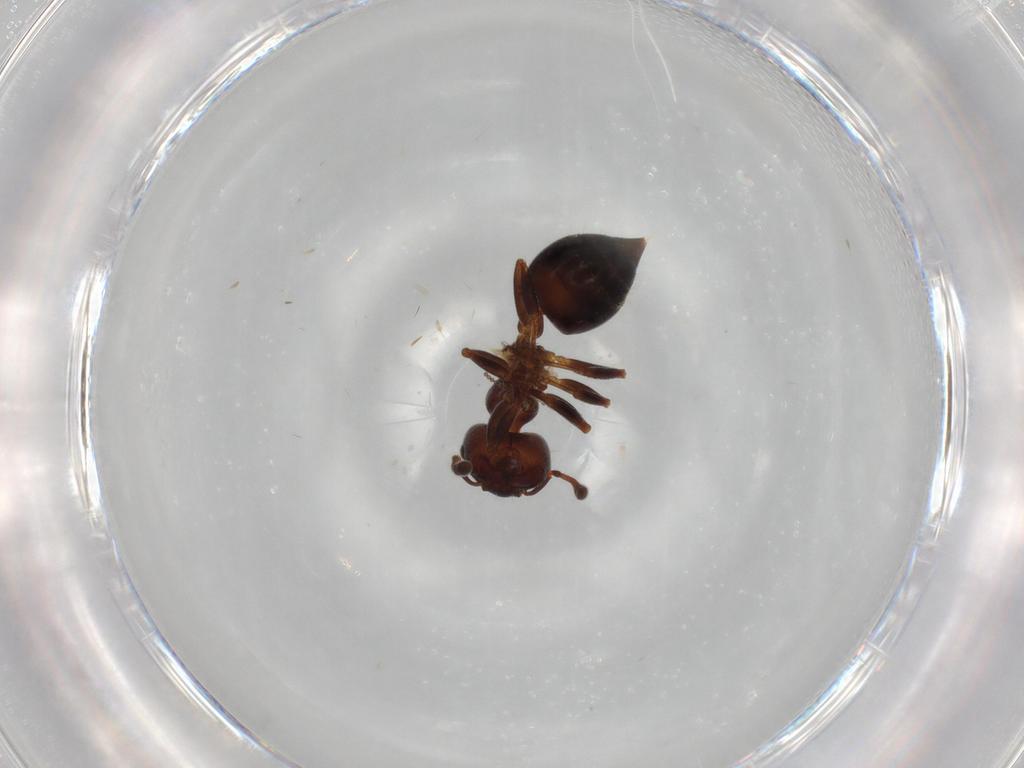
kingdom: Animalia
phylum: Arthropoda
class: Insecta
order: Hymenoptera
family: Formicidae
